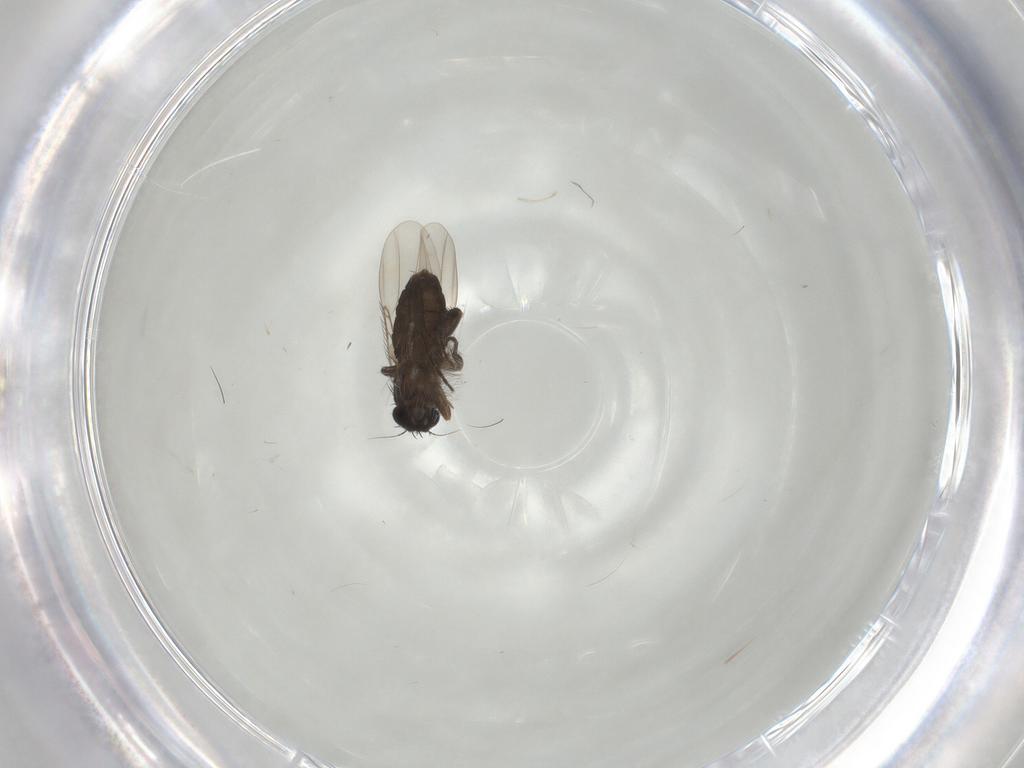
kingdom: Animalia
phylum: Arthropoda
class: Insecta
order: Diptera
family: Phoridae
